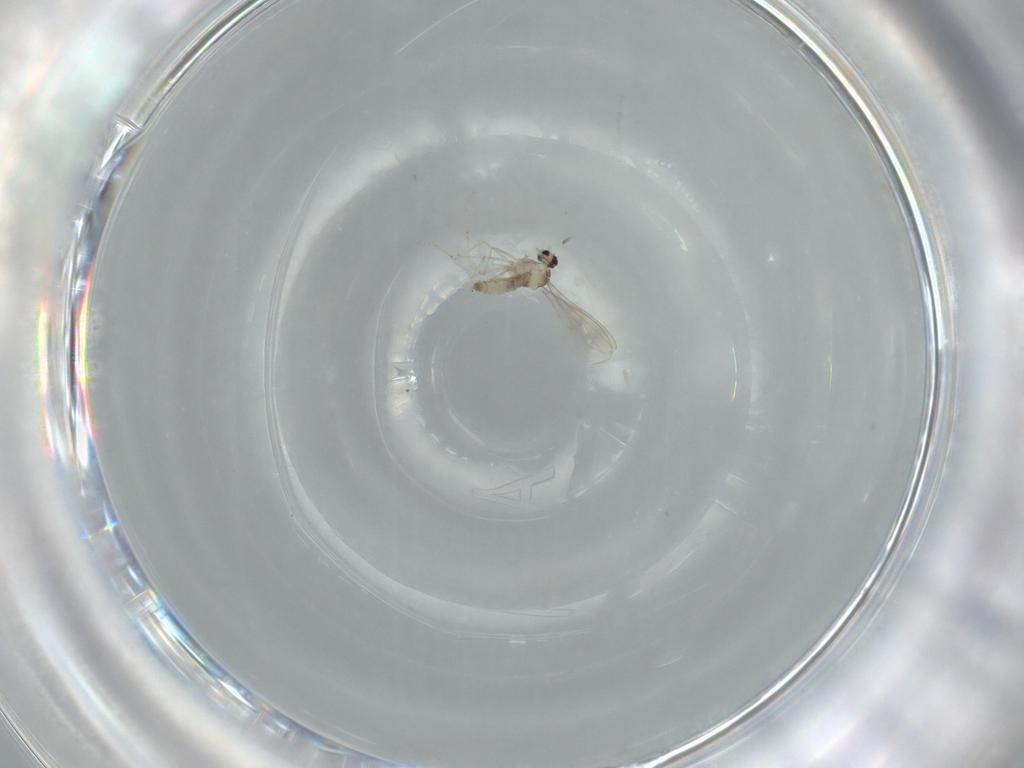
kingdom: Animalia
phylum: Arthropoda
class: Insecta
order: Diptera
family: Cecidomyiidae
